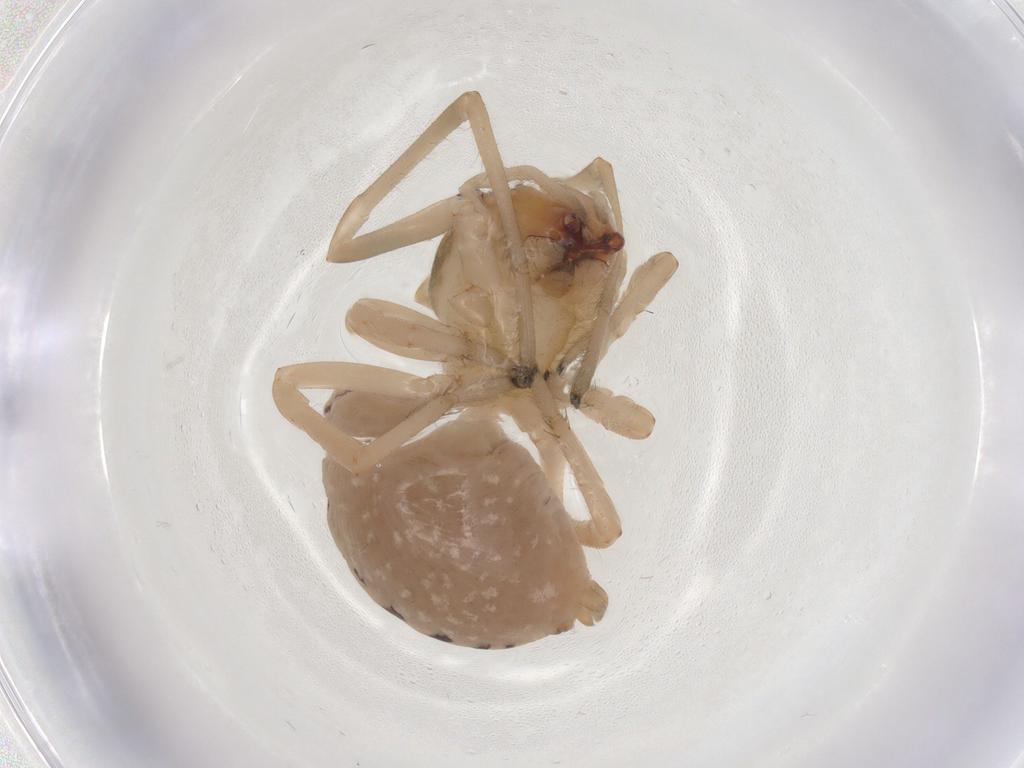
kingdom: Animalia
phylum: Arthropoda
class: Arachnida
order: Araneae
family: Cheiracanthiidae
